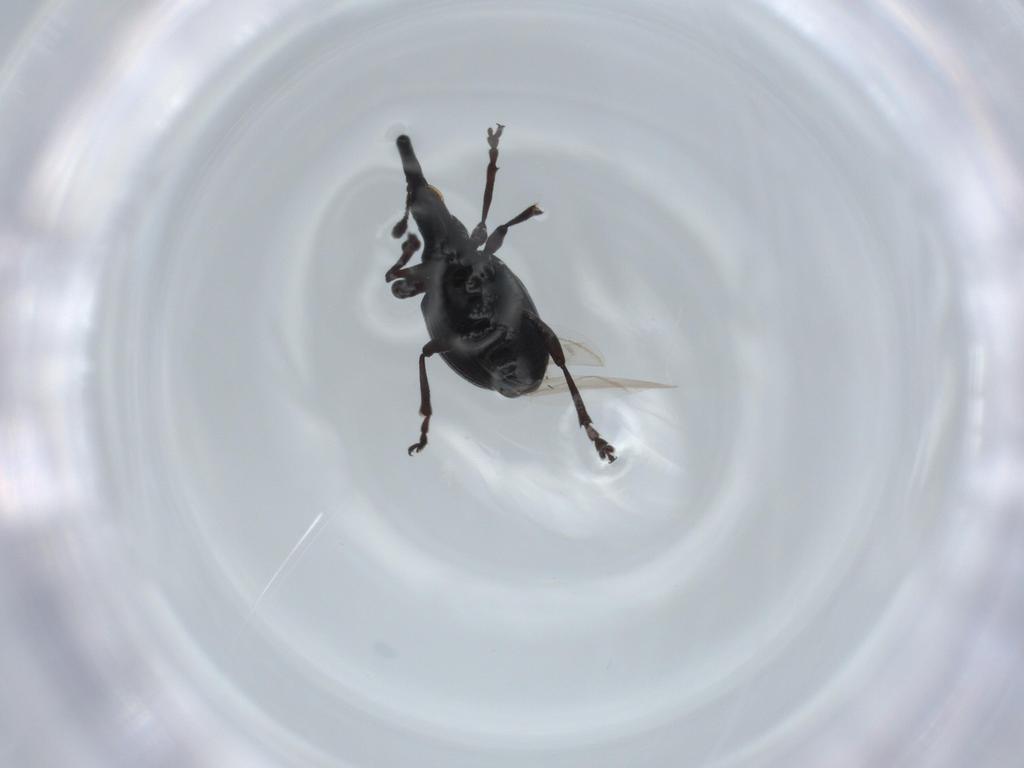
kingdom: Animalia
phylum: Arthropoda
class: Insecta
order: Coleoptera
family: Brentidae
